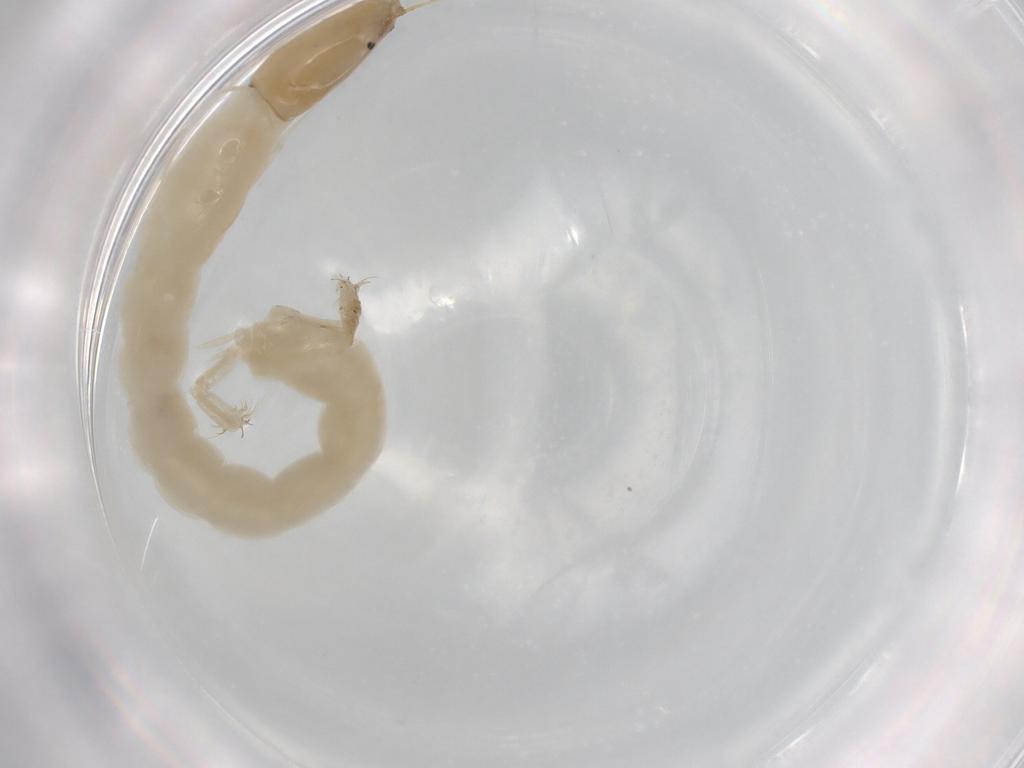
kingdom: Animalia
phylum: Arthropoda
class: Insecta
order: Diptera
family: Chironomidae
